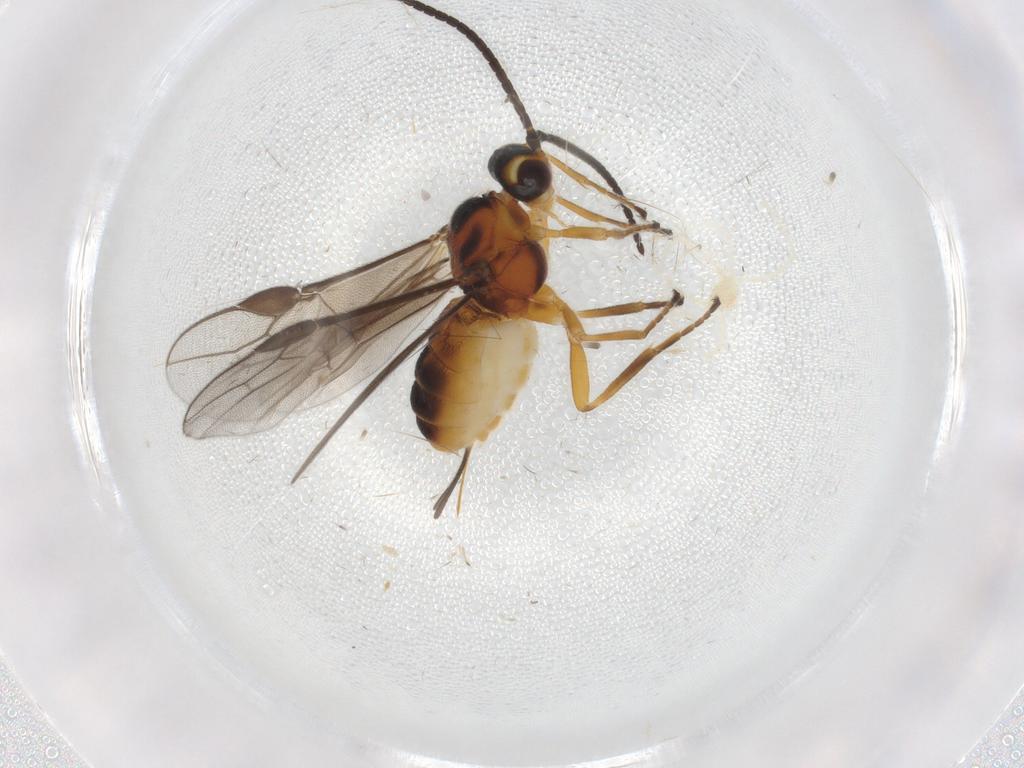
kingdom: Animalia
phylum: Arthropoda
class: Insecta
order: Hymenoptera
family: Braconidae
